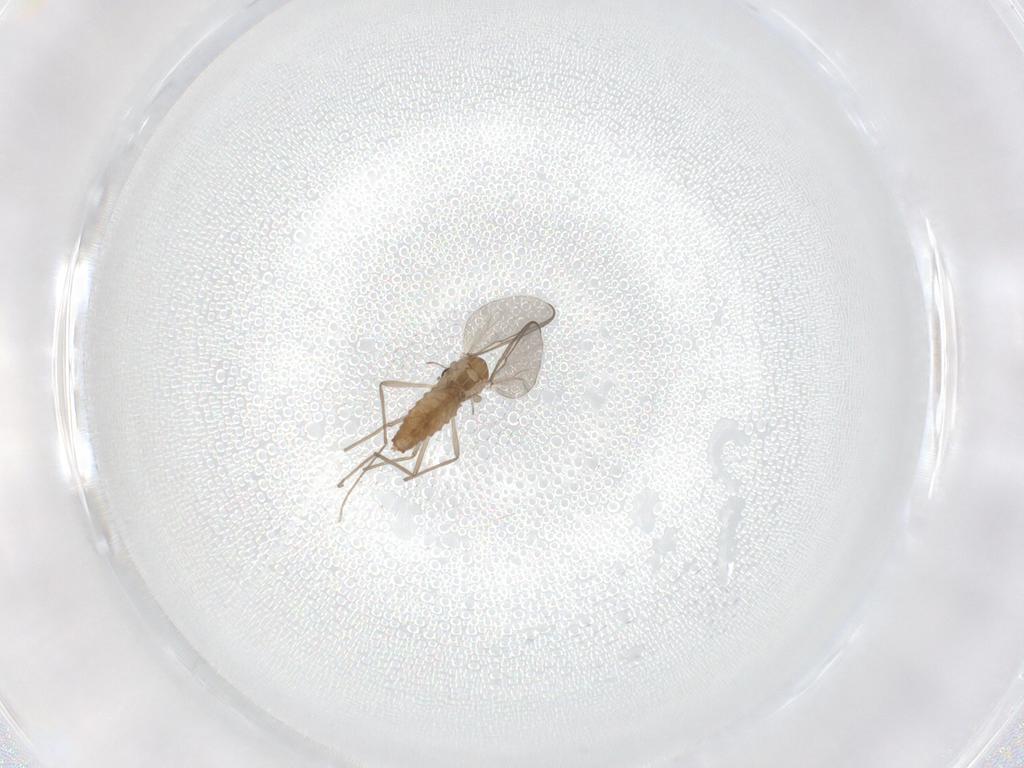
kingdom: Animalia
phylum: Arthropoda
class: Insecta
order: Diptera
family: Chironomidae
